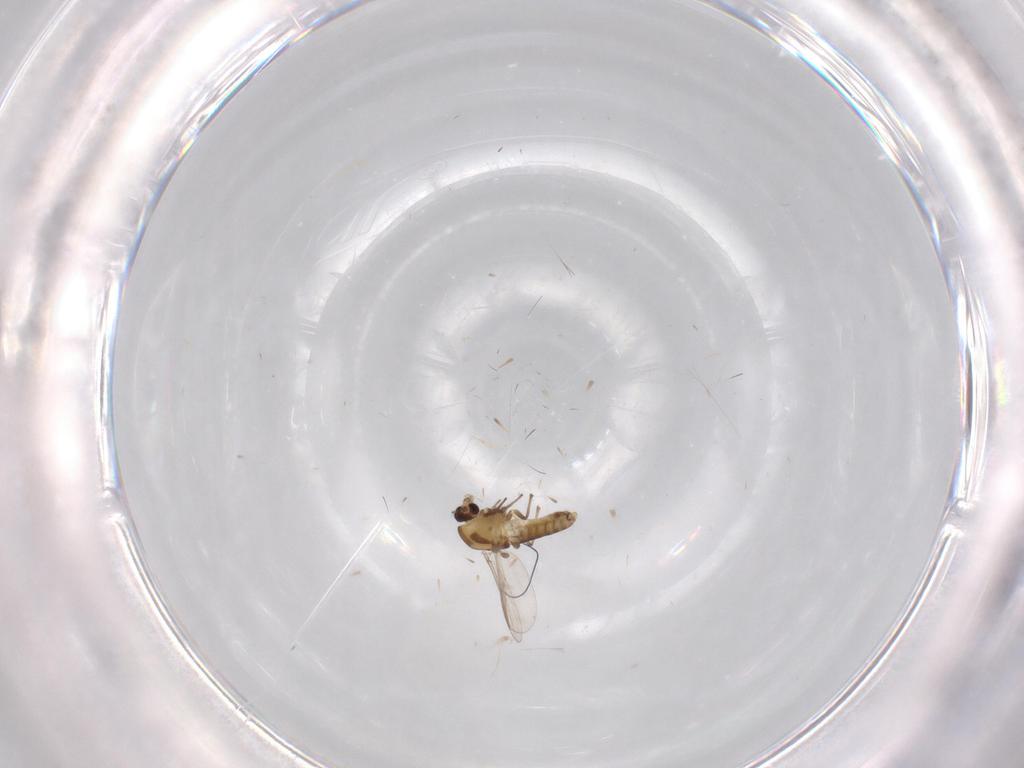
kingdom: Animalia
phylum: Arthropoda
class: Insecta
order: Diptera
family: Chironomidae
